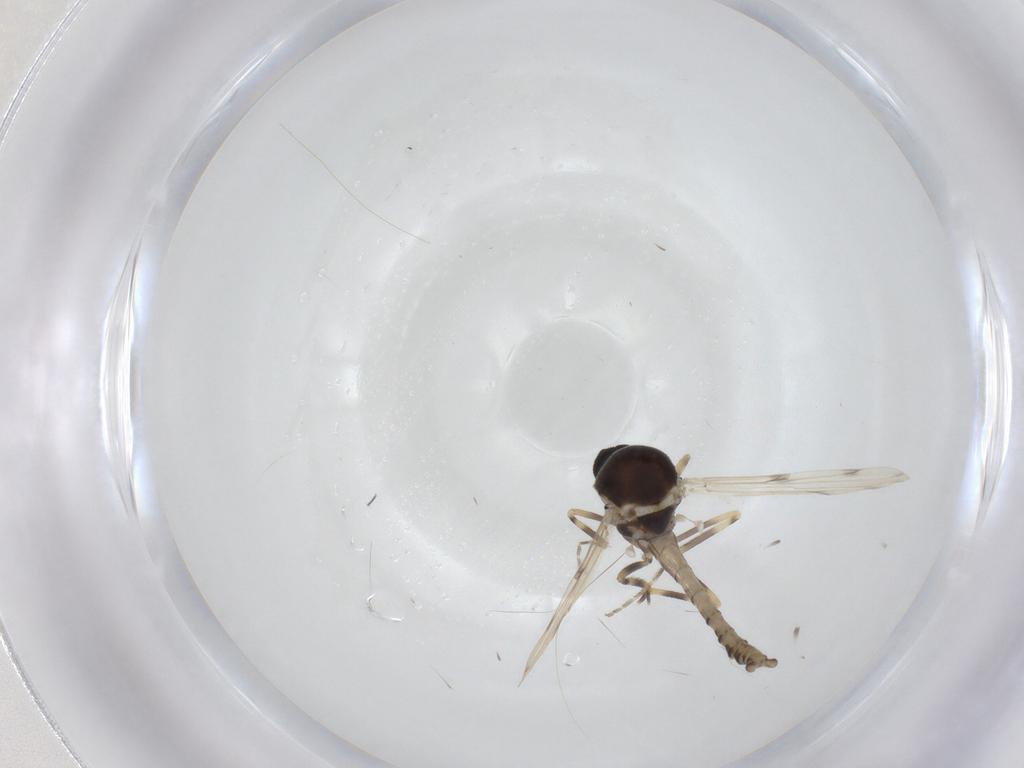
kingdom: Animalia
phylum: Arthropoda
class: Insecta
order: Diptera
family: Ceratopogonidae
